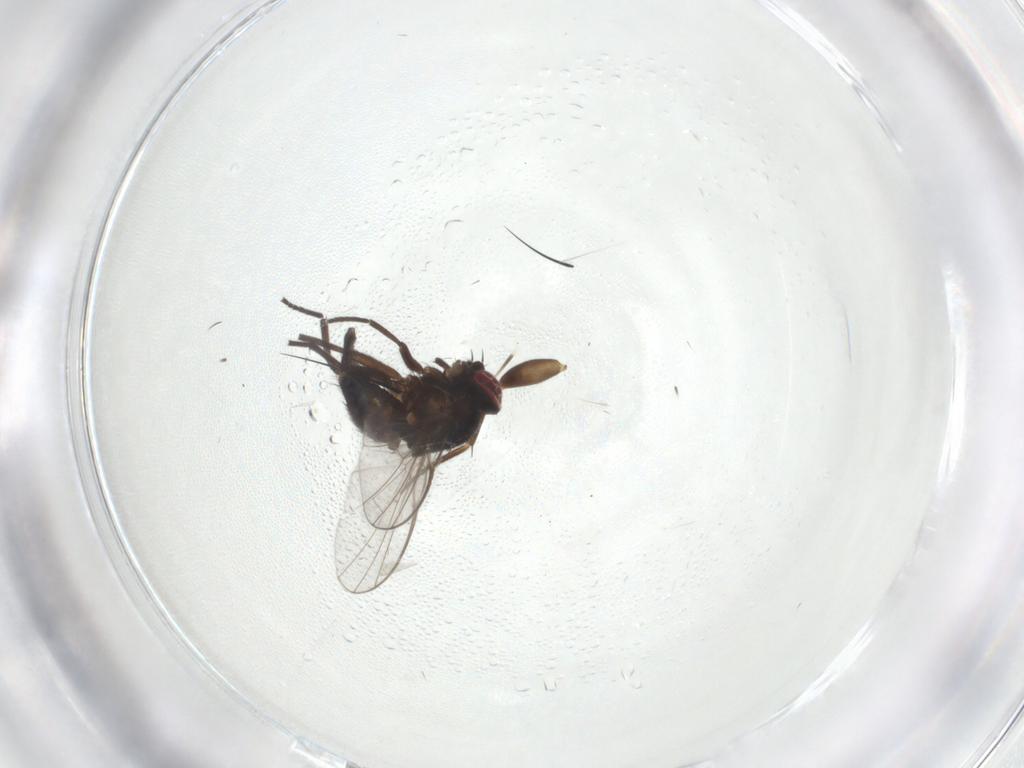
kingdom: Animalia
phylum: Arthropoda
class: Insecta
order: Diptera
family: Agromyzidae
